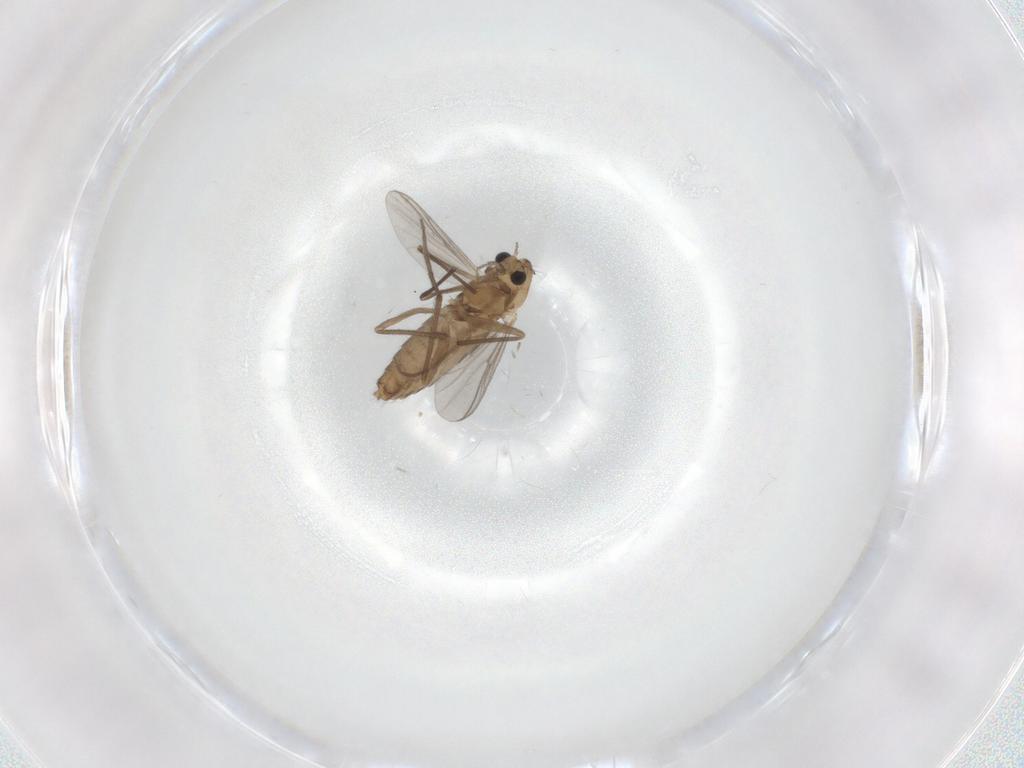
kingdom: Animalia
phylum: Arthropoda
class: Insecta
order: Diptera
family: Chironomidae
